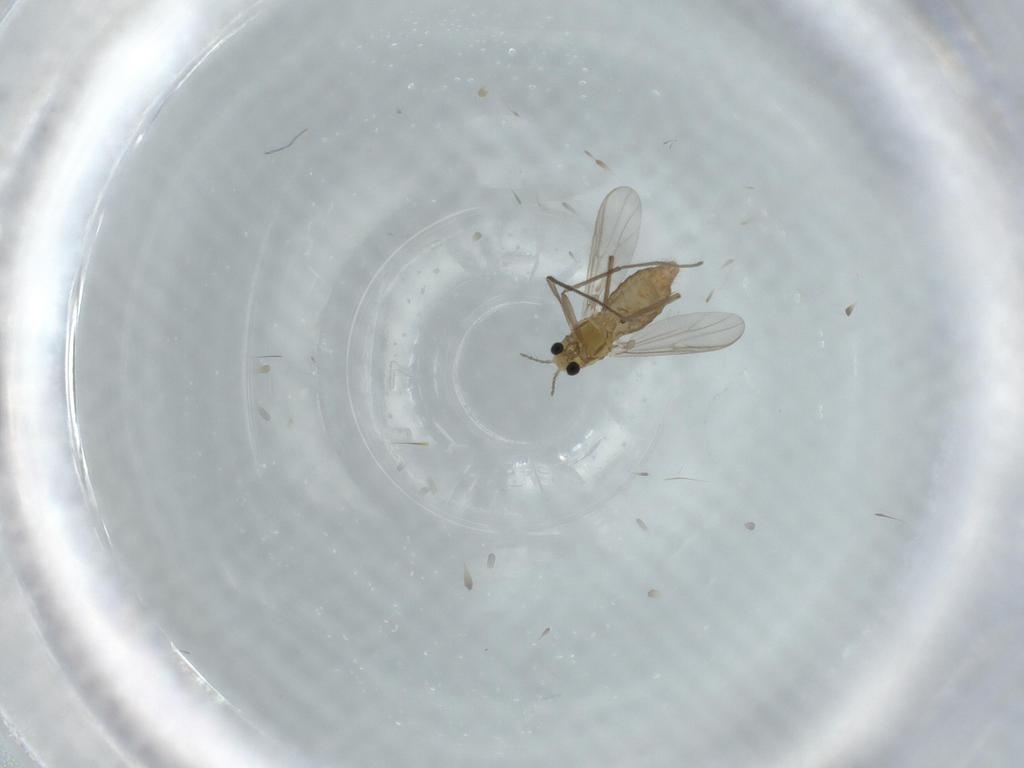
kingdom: Animalia
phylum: Arthropoda
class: Insecta
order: Diptera
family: Chironomidae
